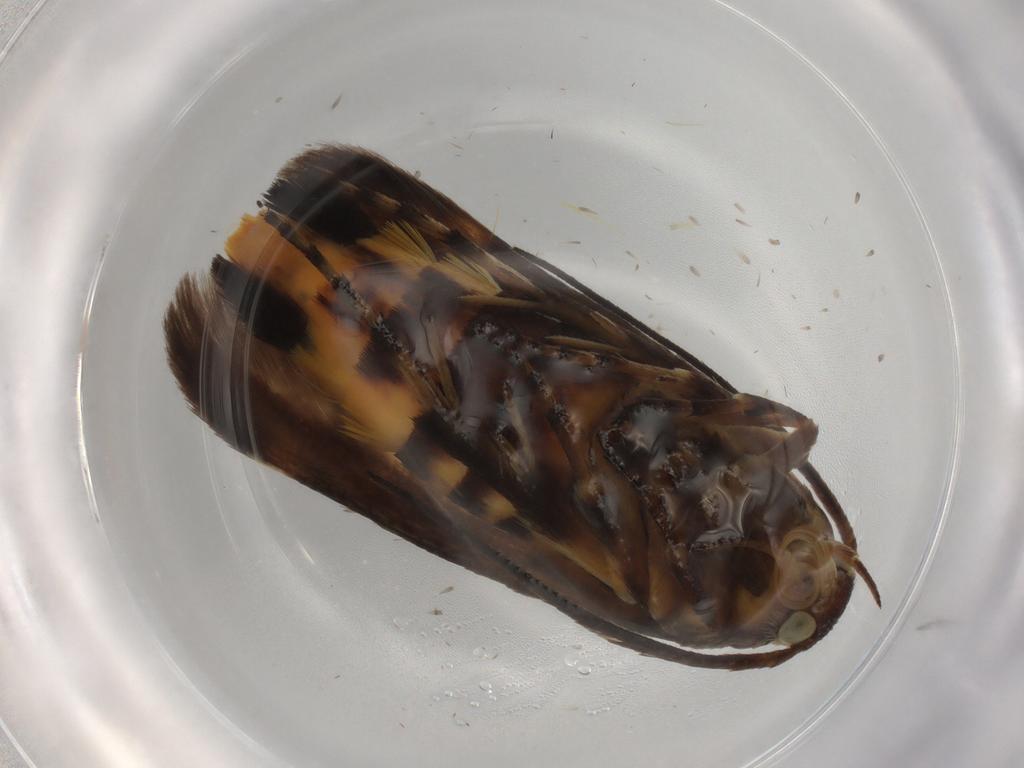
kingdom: Animalia
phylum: Arthropoda
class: Insecta
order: Lepidoptera
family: Scythrididae
